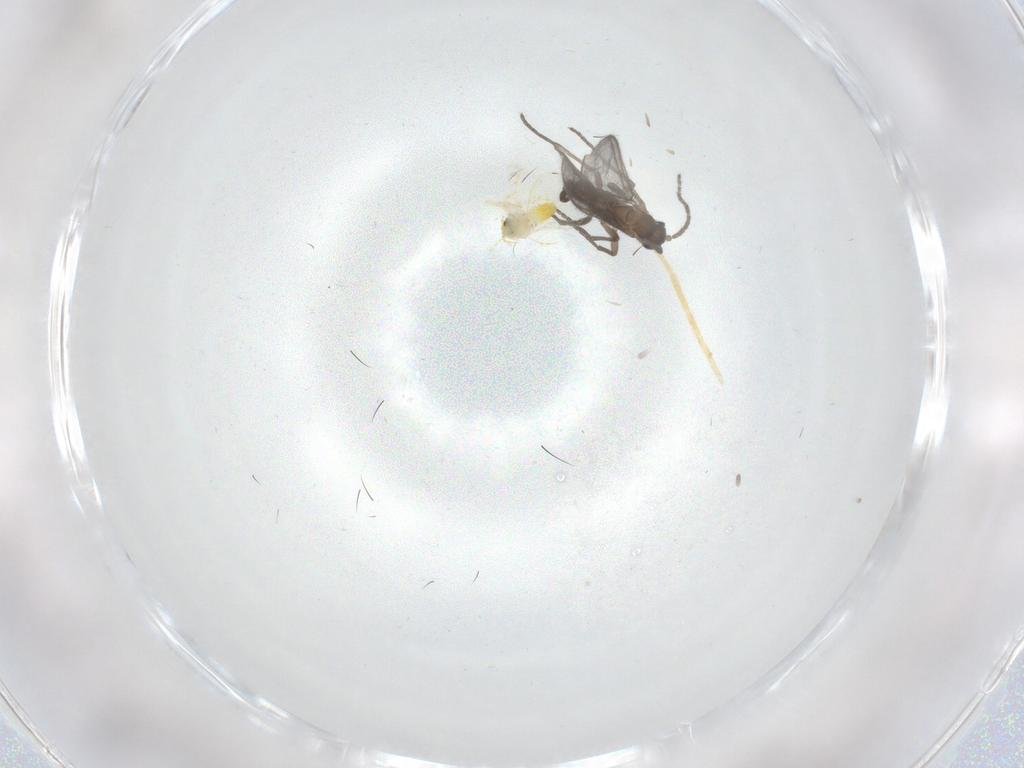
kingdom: Animalia
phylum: Arthropoda
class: Insecta
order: Diptera
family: Sciaridae
